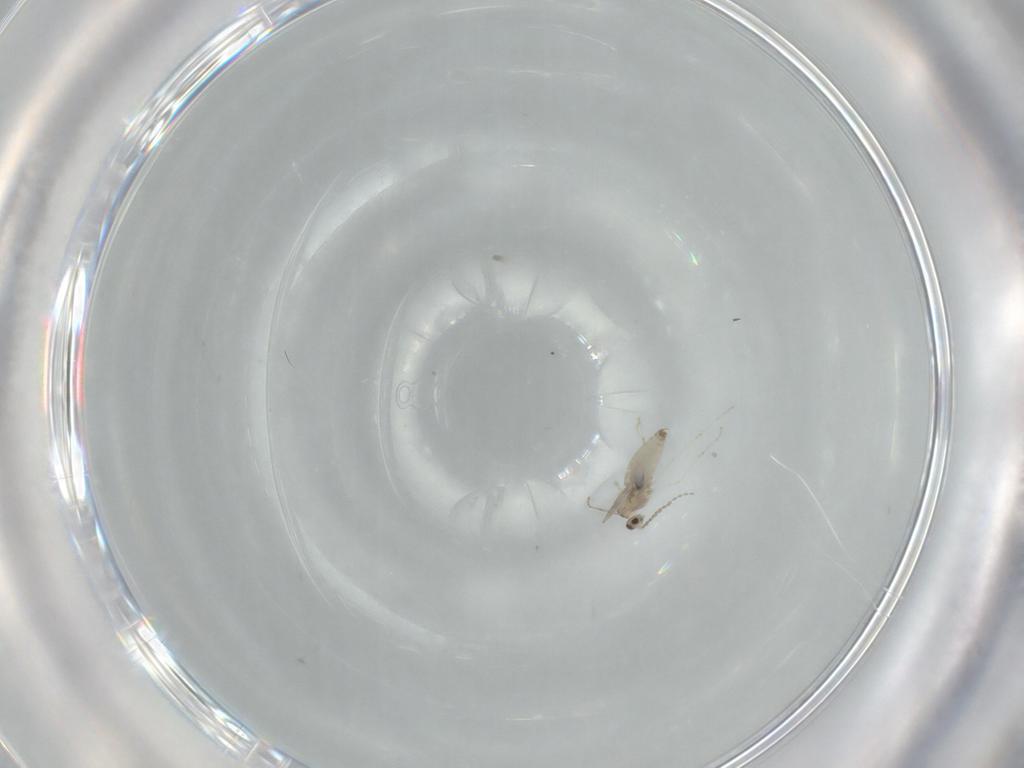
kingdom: Animalia
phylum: Arthropoda
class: Insecta
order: Diptera
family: Cecidomyiidae
